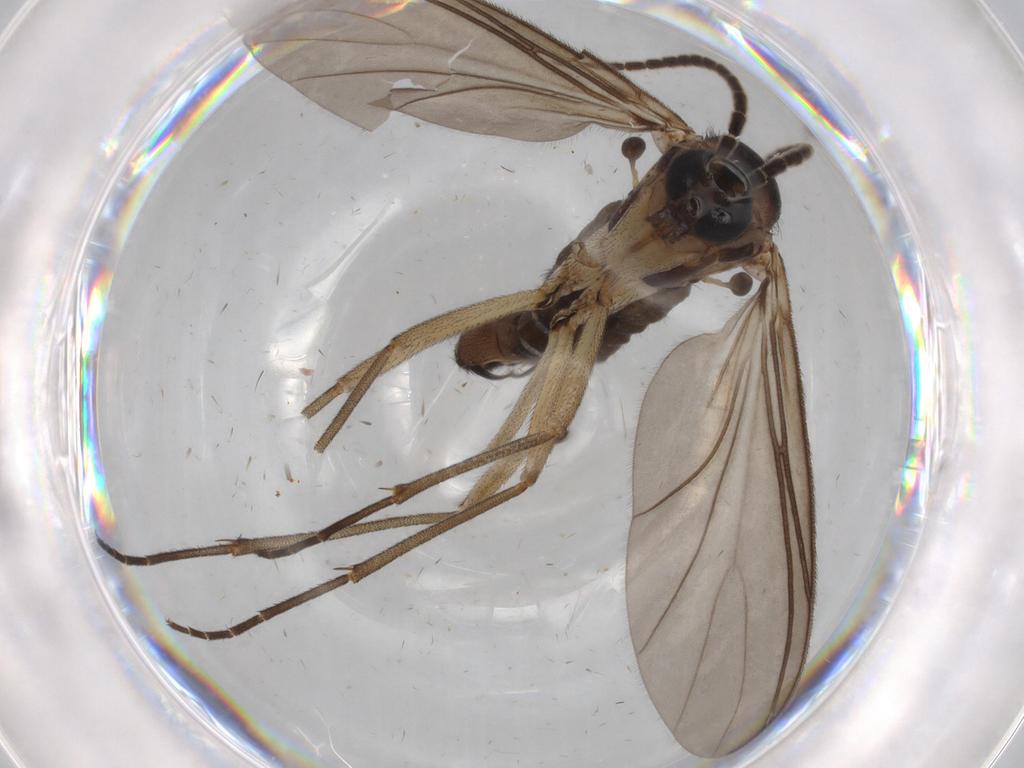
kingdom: Animalia
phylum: Arthropoda
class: Insecta
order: Diptera
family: Phoridae
